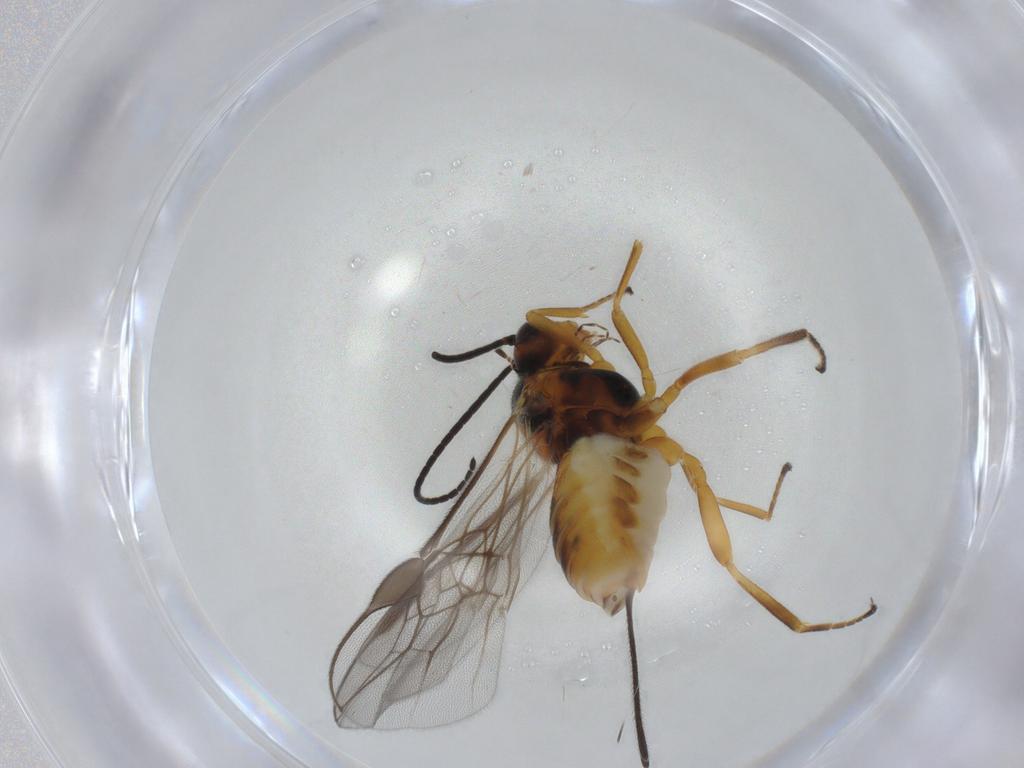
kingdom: Animalia
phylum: Arthropoda
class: Insecta
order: Hymenoptera
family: Braconidae
